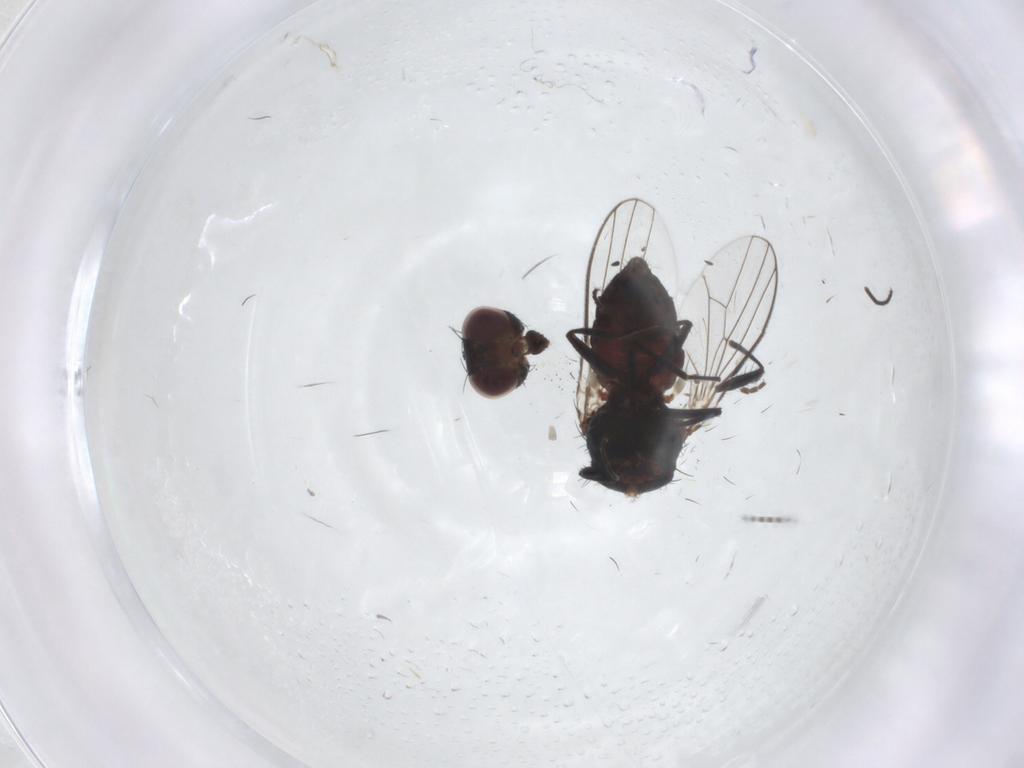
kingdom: Animalia
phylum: Arthropoda
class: Insecta
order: Diptera
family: Carnidae
